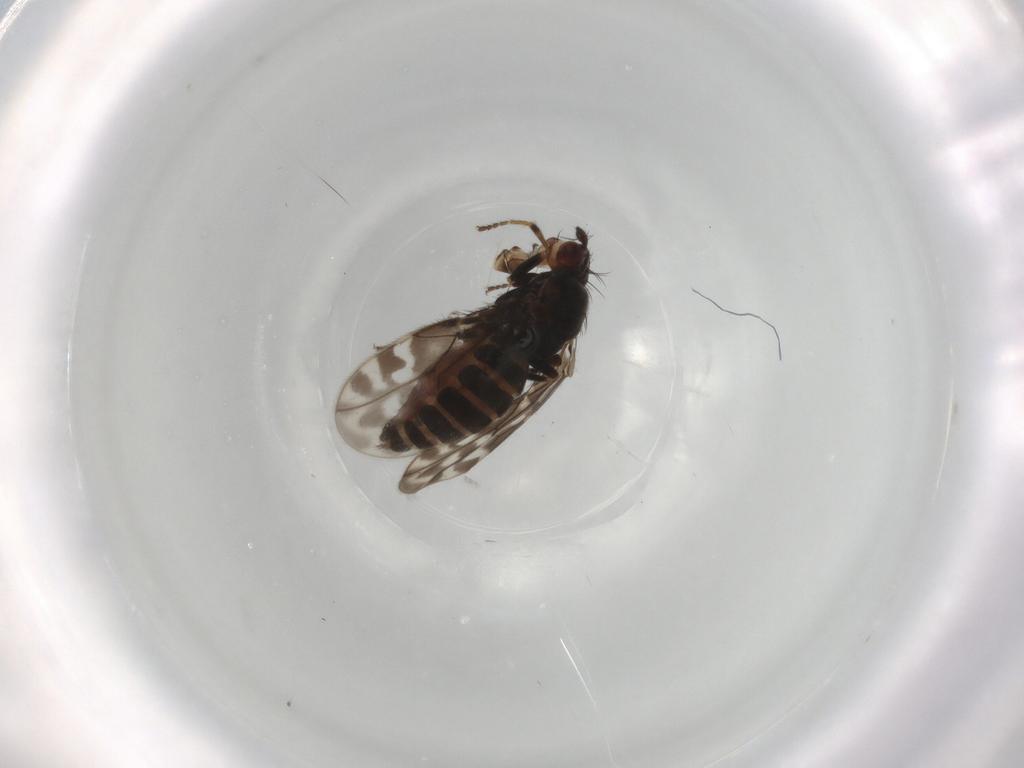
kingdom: Animalia
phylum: Arthropoda
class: Insecta
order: Diptera
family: Sphaeroceridae
